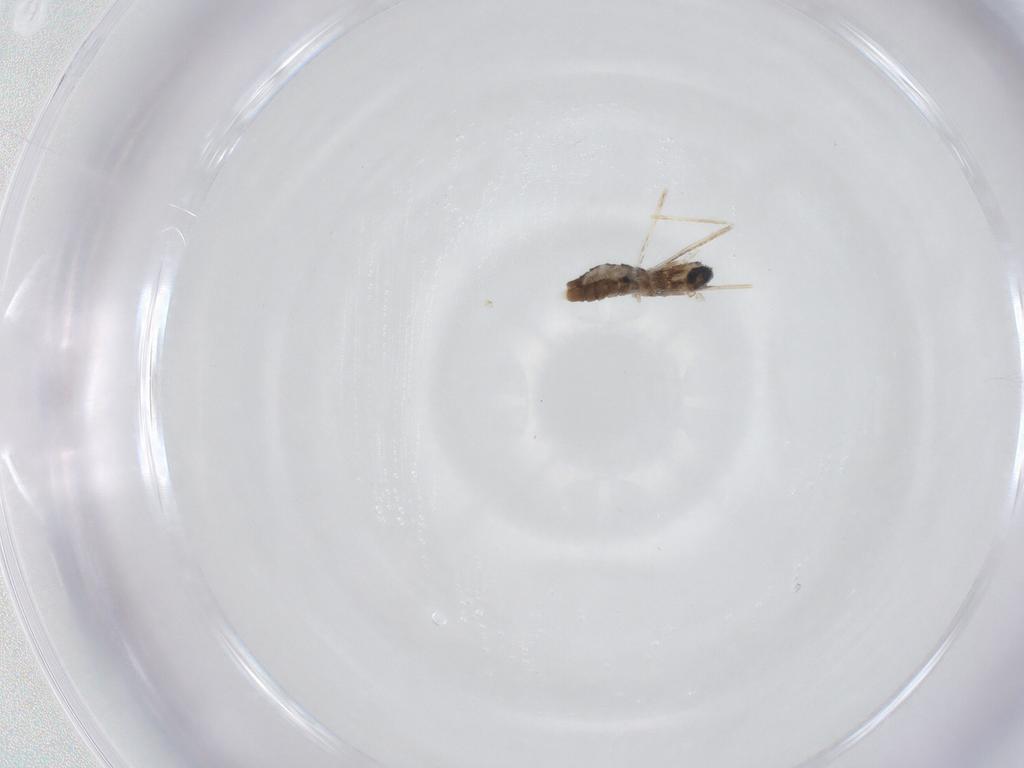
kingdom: Animalia
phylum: Arthropoda
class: Insecta
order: Diptera
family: Cecidomyiidae
